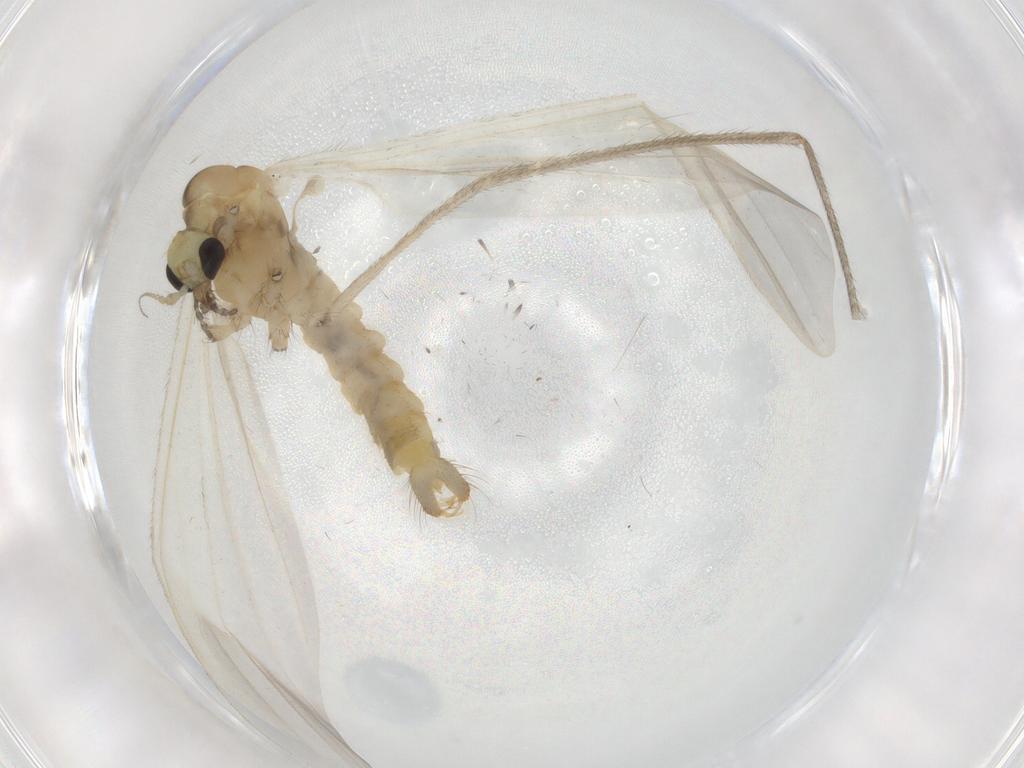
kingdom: Animalia
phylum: Arthropoda
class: Insecta
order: Diptera
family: Limoniidae
